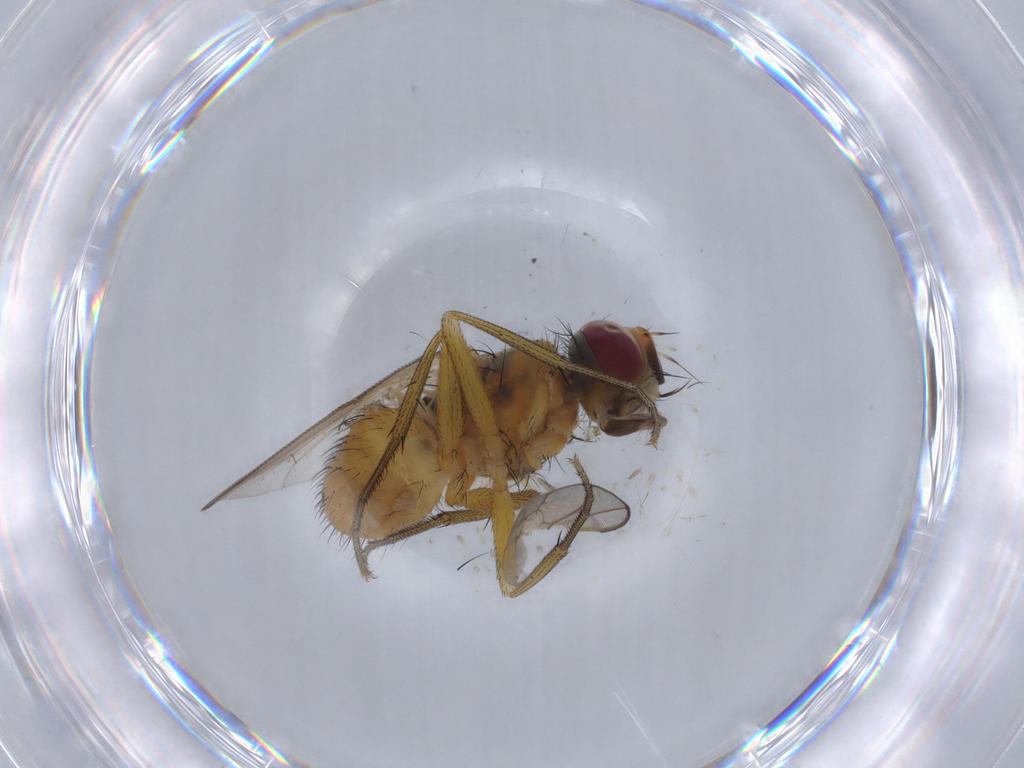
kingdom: Animalia
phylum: Arthropoda
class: Insecta
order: Diptera
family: Muscidae
